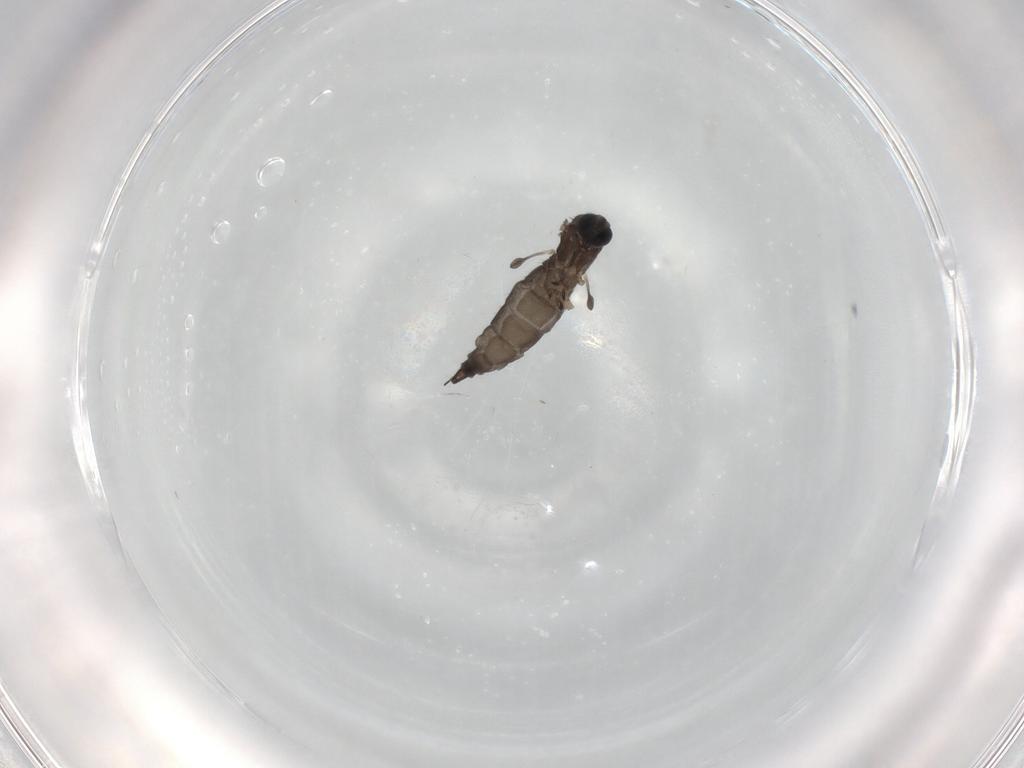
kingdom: Animalia
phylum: Arthropoda
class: Insecta
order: Diptera
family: Sciaridae
